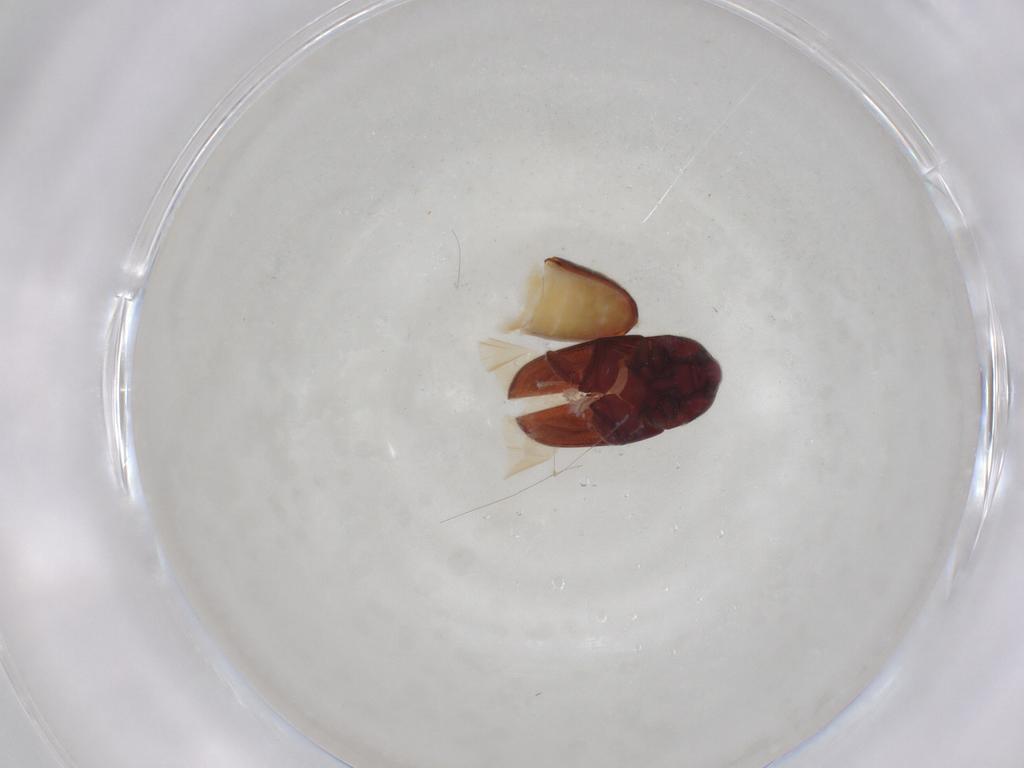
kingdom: Animalia
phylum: Arthropoda
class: Insecta
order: Coleoptera
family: Throscidae
